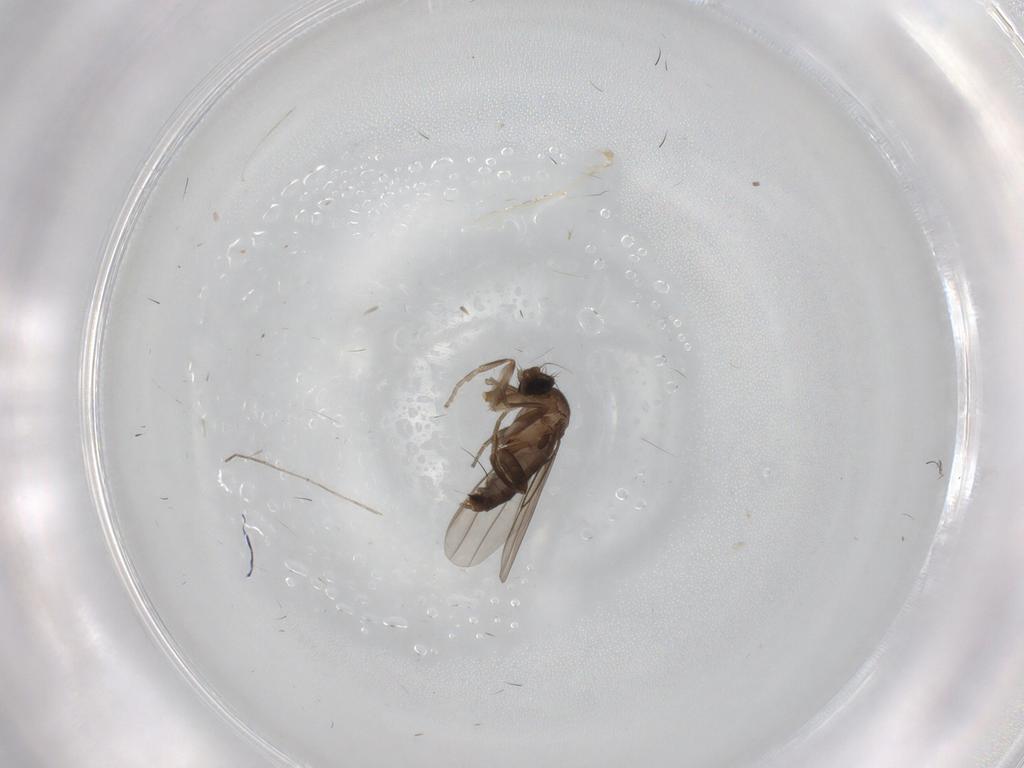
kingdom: Animalia
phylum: Arthropoda
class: Insecta
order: Diptera
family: Phoridae
